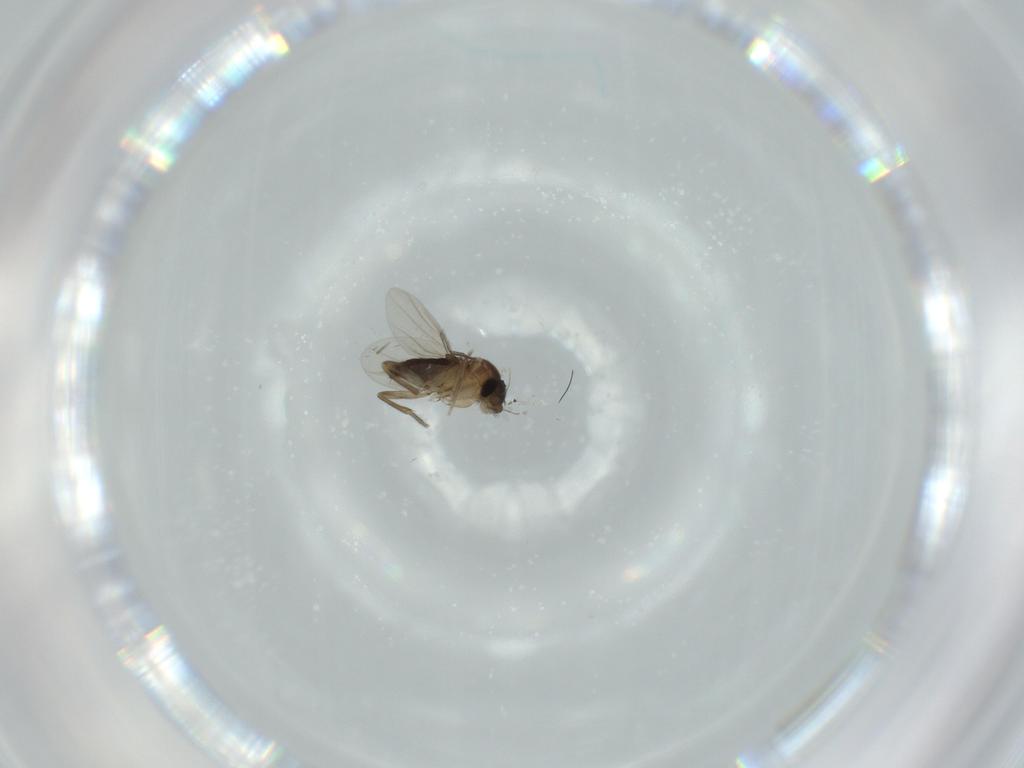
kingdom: Animalia
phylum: Arthropoda
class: Insecta
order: Diptera
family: Phoridae
